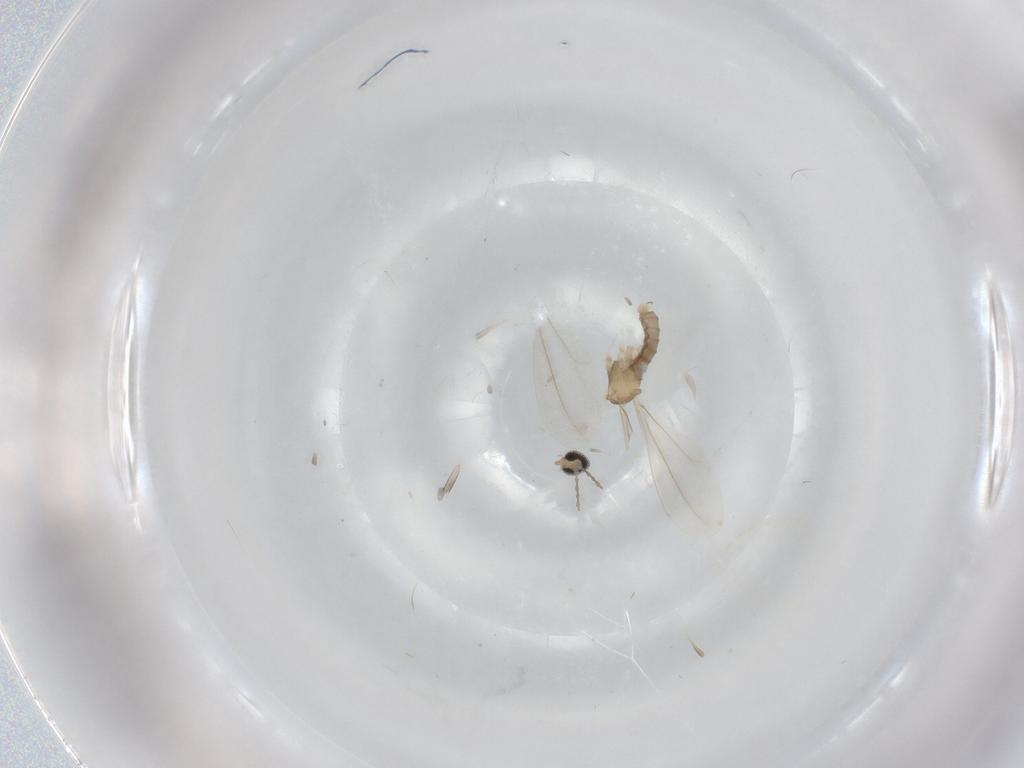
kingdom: Animalia
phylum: Arthropoda
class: Insecta
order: Diptera
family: Cecidomyiidae
